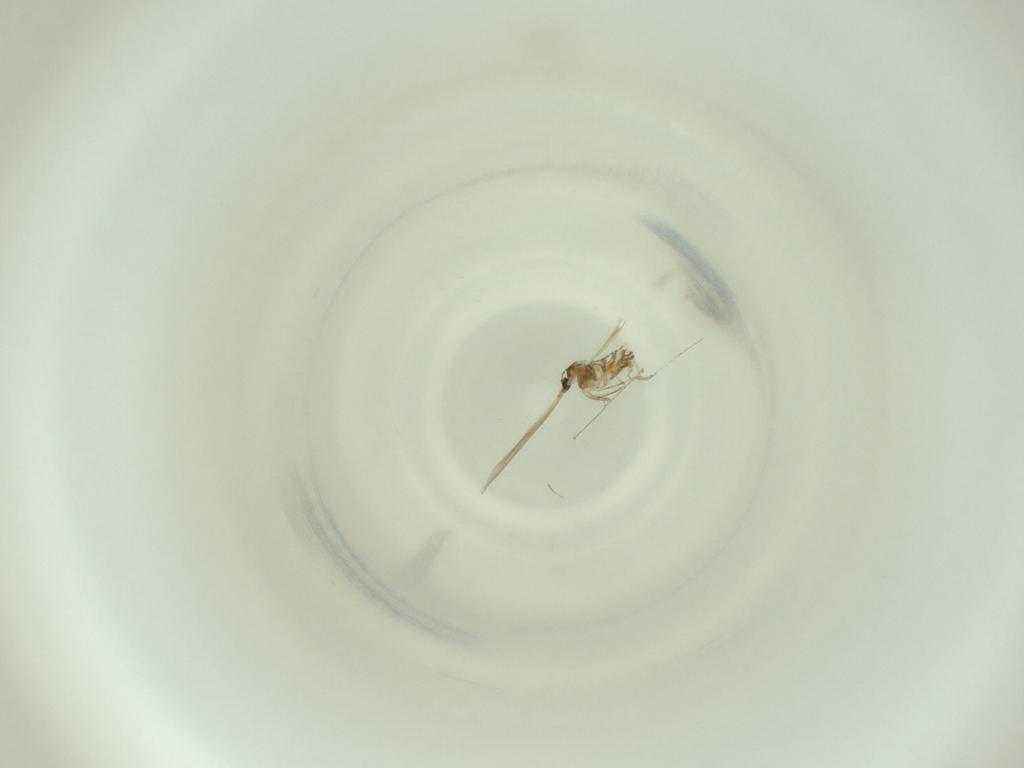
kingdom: Animalia
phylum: Arthropoda
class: Insecta
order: Diptera
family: Cecidomyiidae
